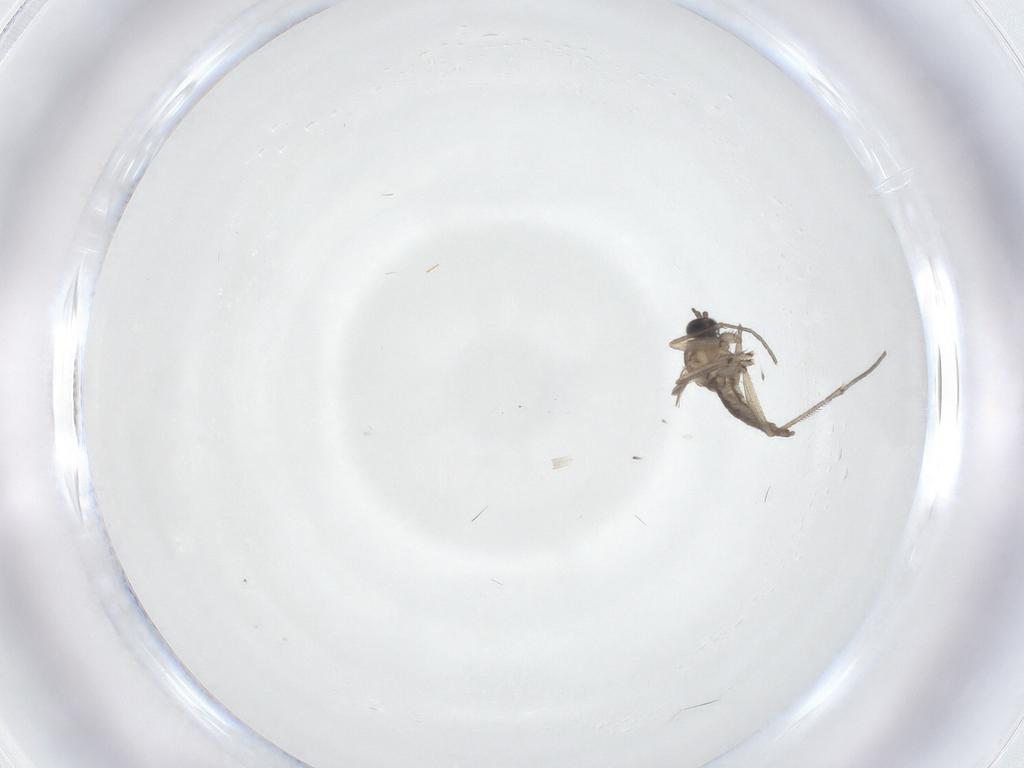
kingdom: Animalia
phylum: Arthropoda
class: Insecta
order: Diptera
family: Sciaridae
